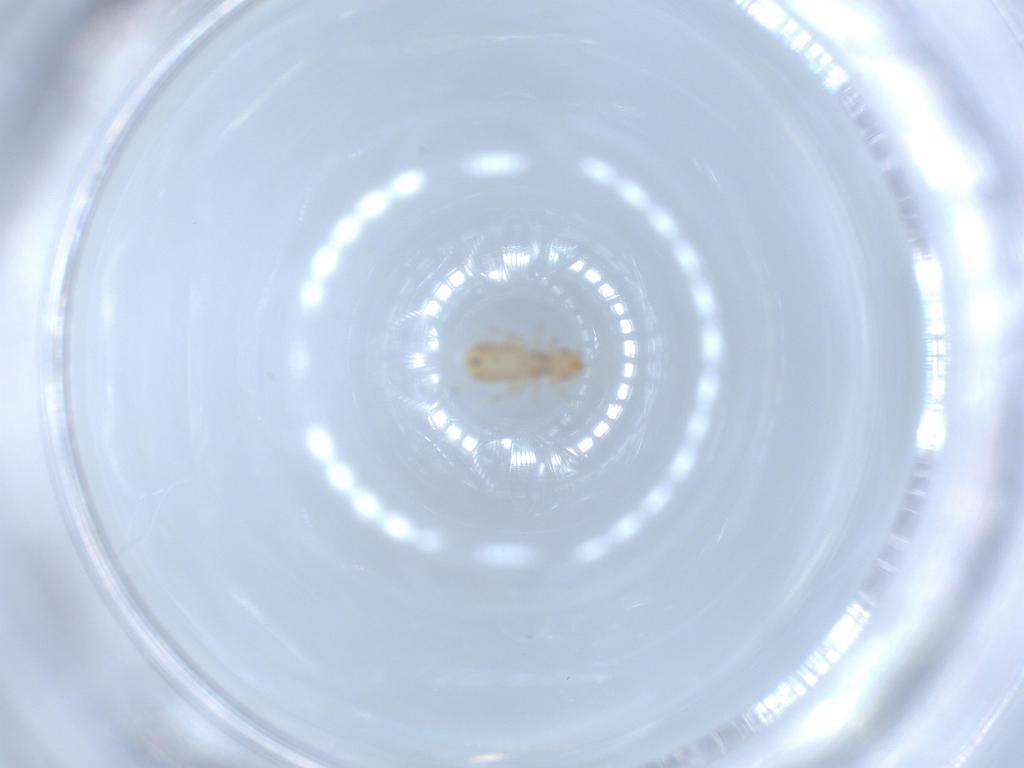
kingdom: Animalia
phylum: Arthropoda
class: Insecta
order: Psocodea
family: Liposcelididae
